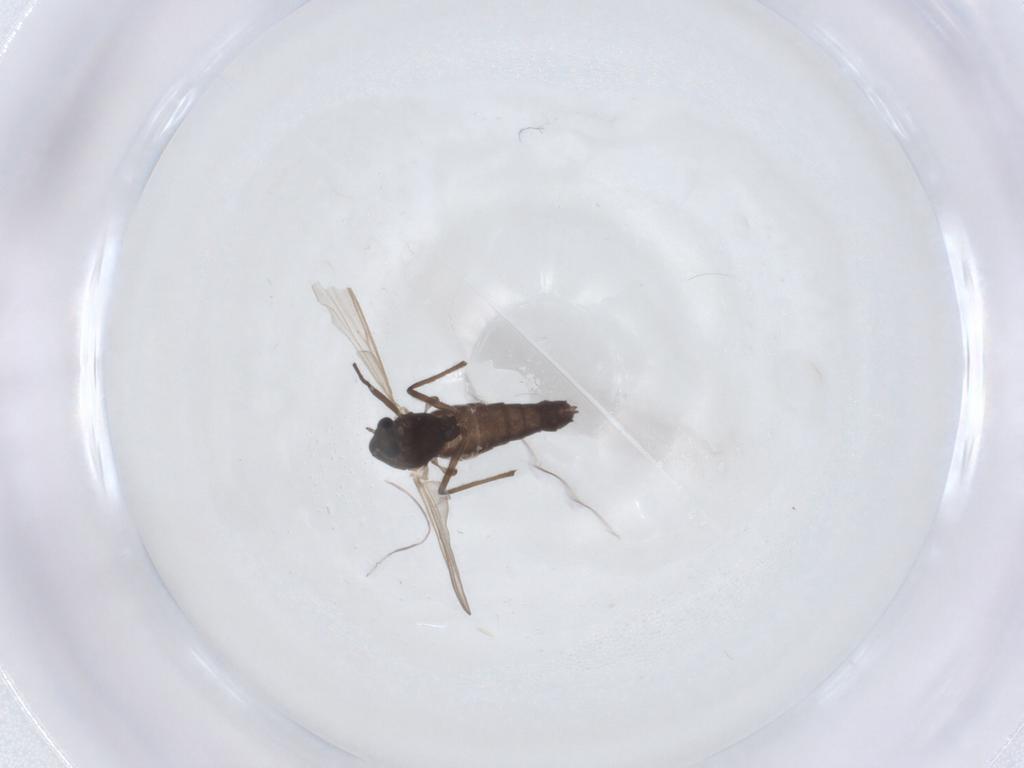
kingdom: Animalia
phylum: Arthropoda
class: Insecta
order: Diptera
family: Chironomidae
